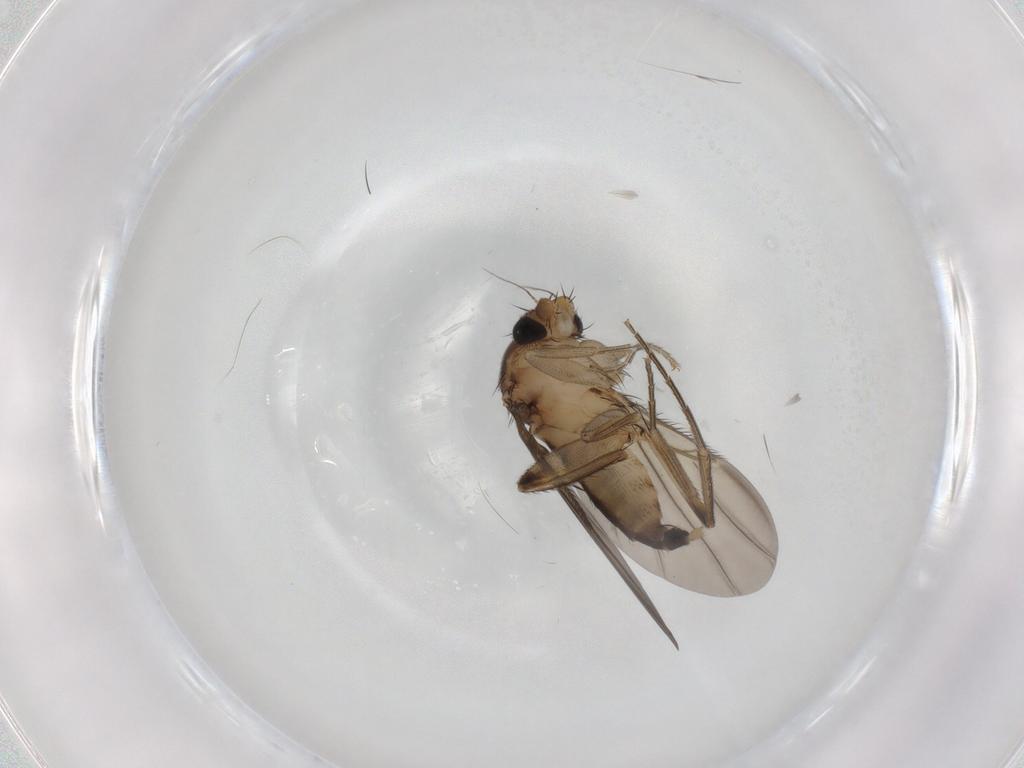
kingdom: Animalia
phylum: Arthropoda
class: Insecta
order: Diptera
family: Phoridae
